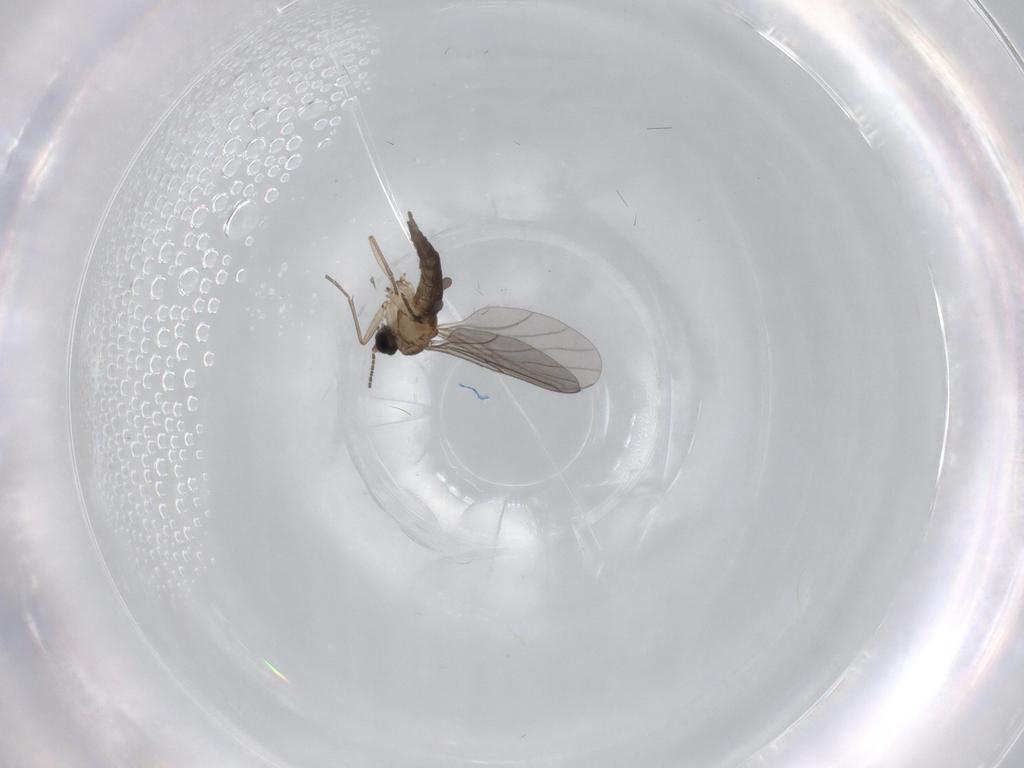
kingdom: Animalia
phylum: Arthropoda
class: Insecta
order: Diptera
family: Sciaridae
